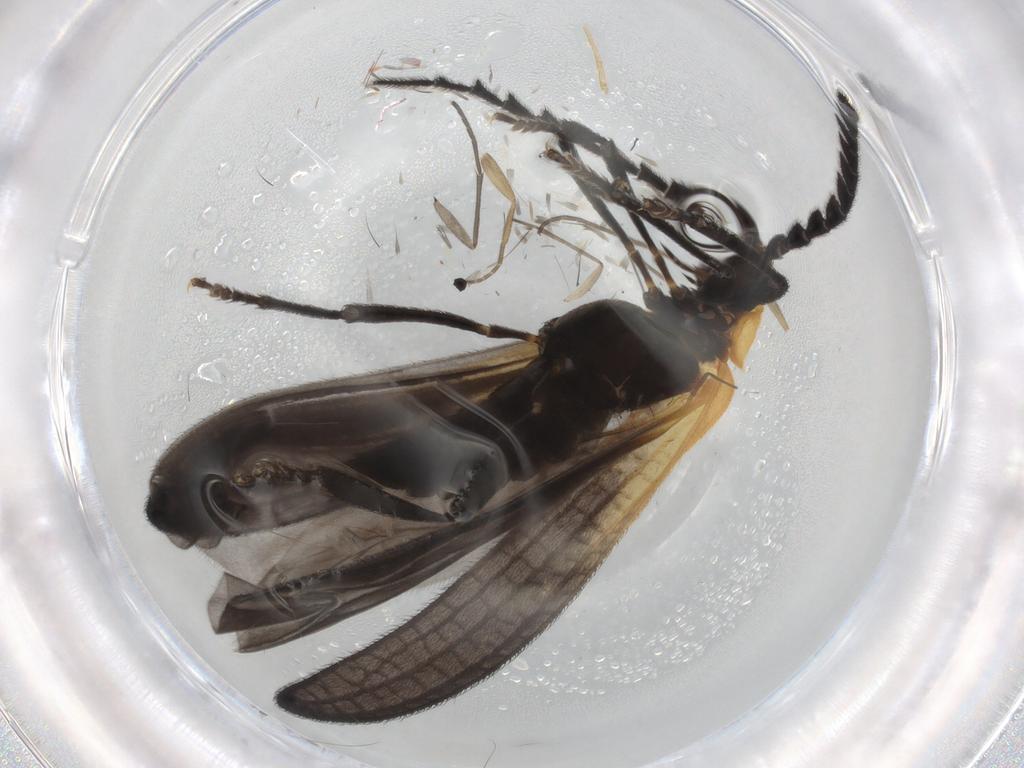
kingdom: Animalia
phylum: Arthropoda
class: Insecta
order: Coleoptera
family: Lycidae
